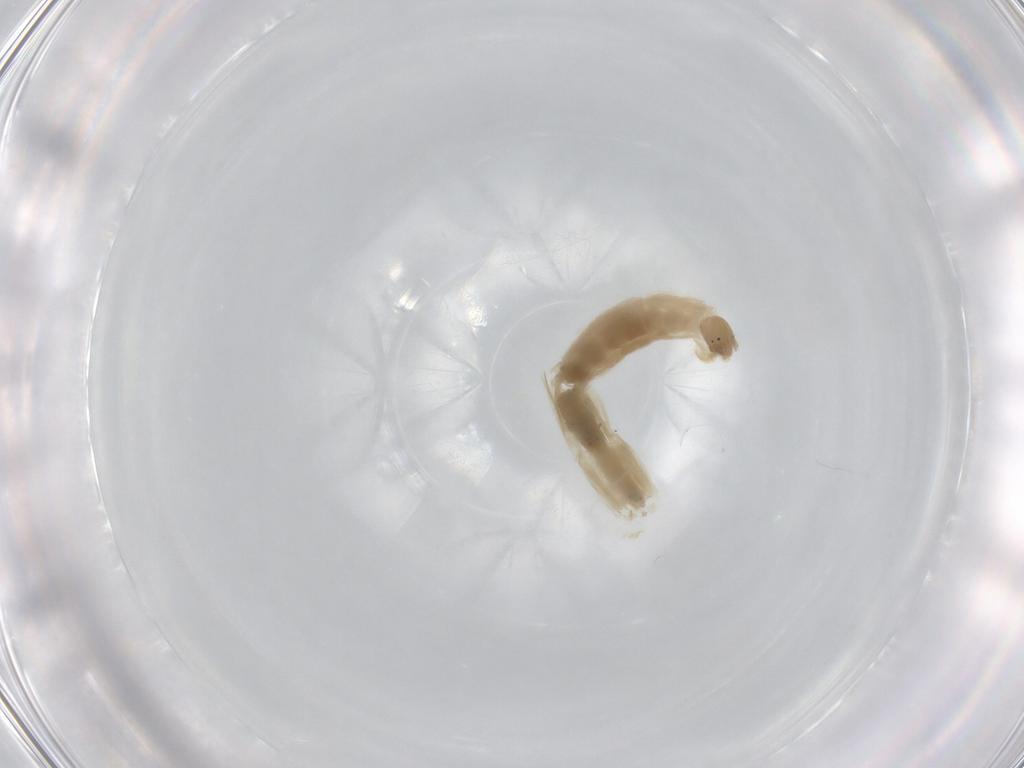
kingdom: Animalia
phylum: Arthropoda
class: Insecta
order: Diptera
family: Chironomidae
